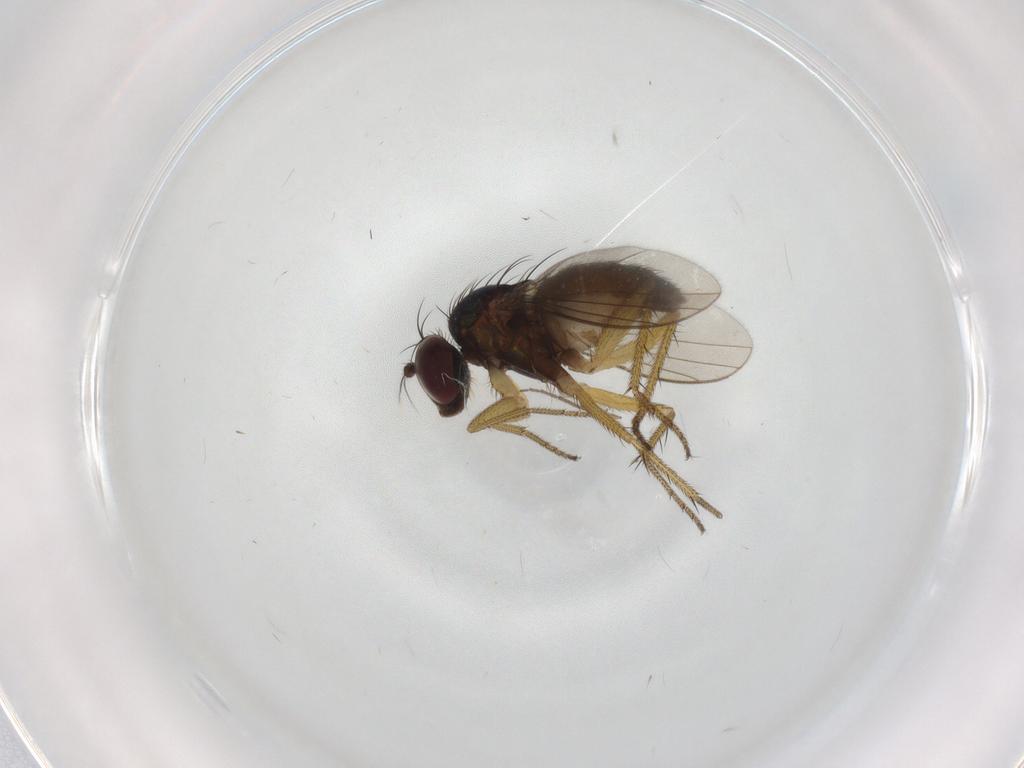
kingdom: Animalia
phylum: Arthropoda
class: Insecta
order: Diptera
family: Dolichopodidae
